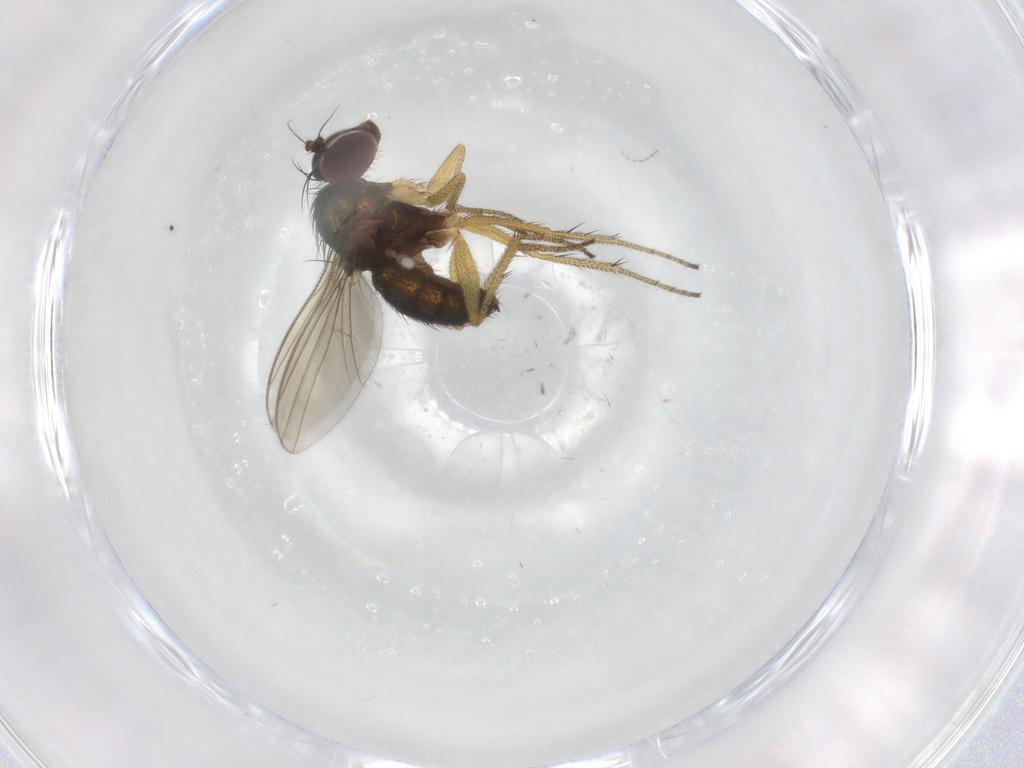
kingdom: Animalia
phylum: Arthropoda
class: Insecta
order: Diptera
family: Dolichopodidae
